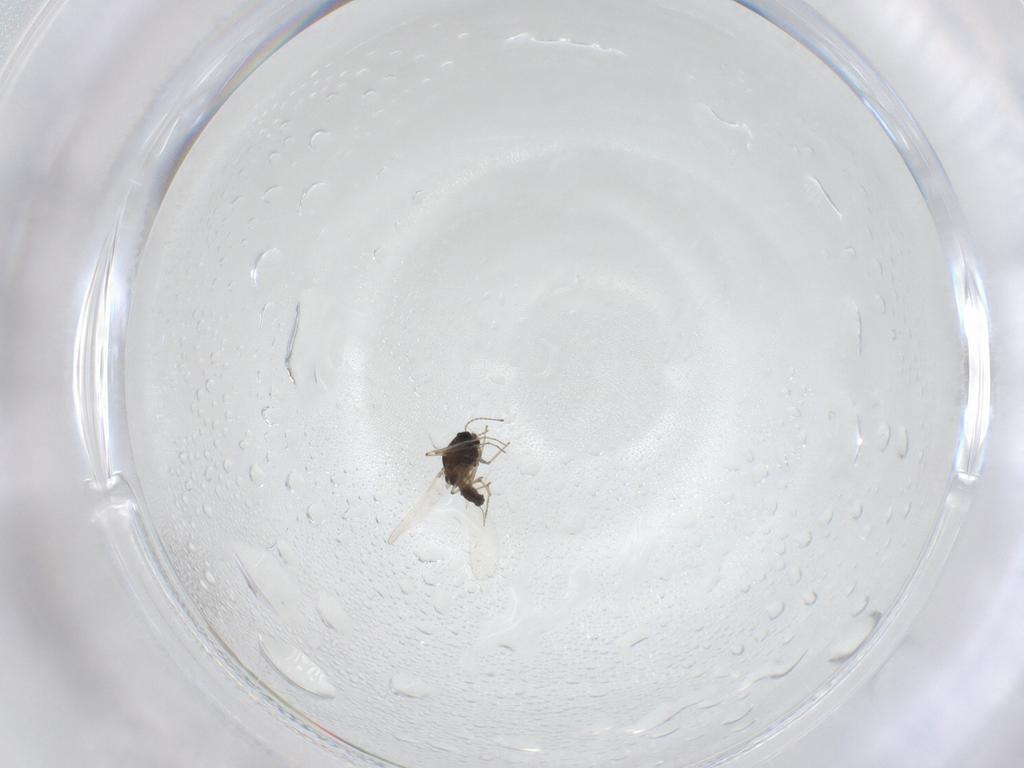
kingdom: Animalia
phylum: Arthropoda
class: Insecta
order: Diptera
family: Chironomidae
